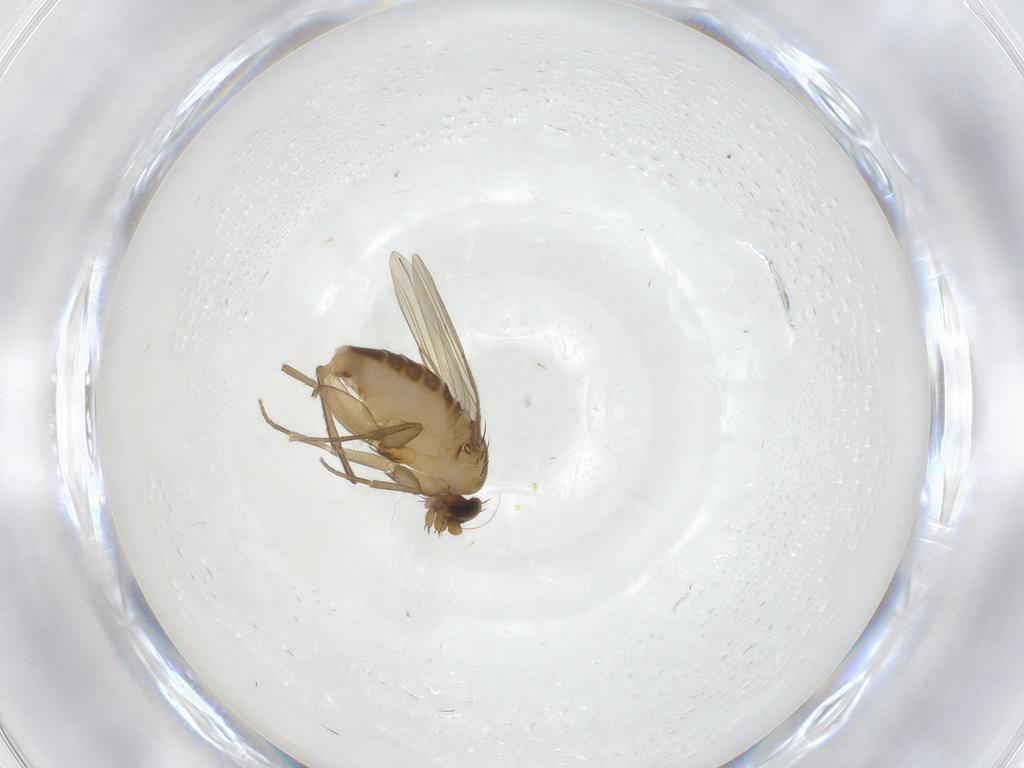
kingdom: Animalia
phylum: Arthropoda
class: Insecta
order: Diptera
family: Phoridae
